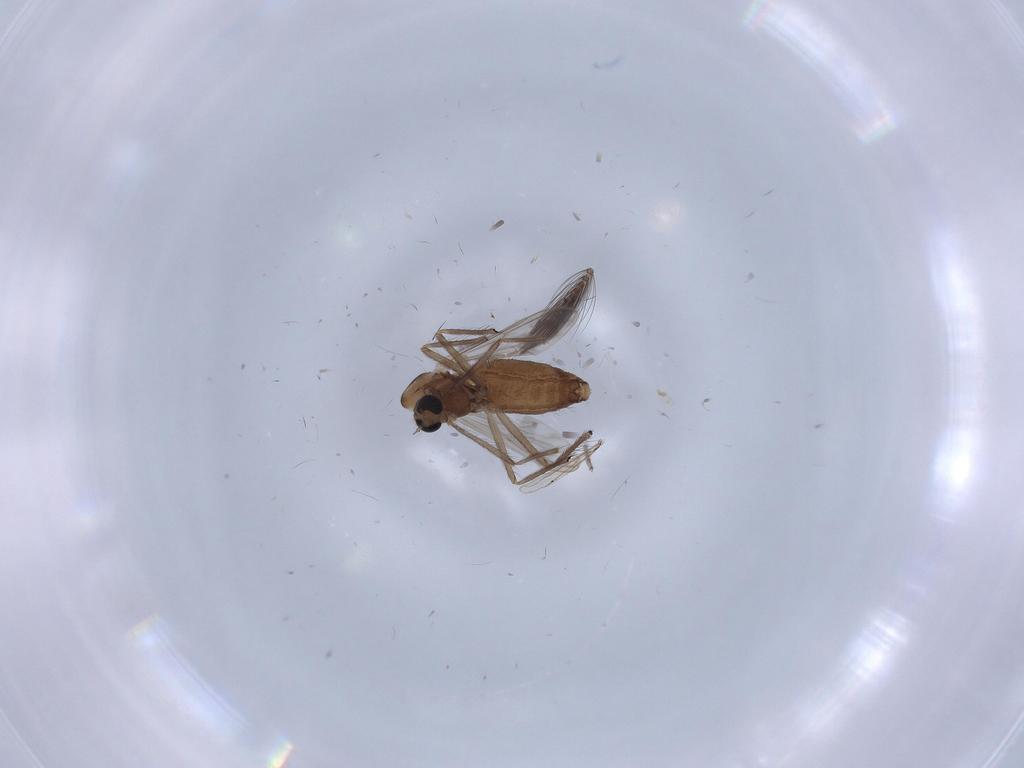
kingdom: Animalia
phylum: Arthropoda
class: Insecta
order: Diptera
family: Chironomidae
